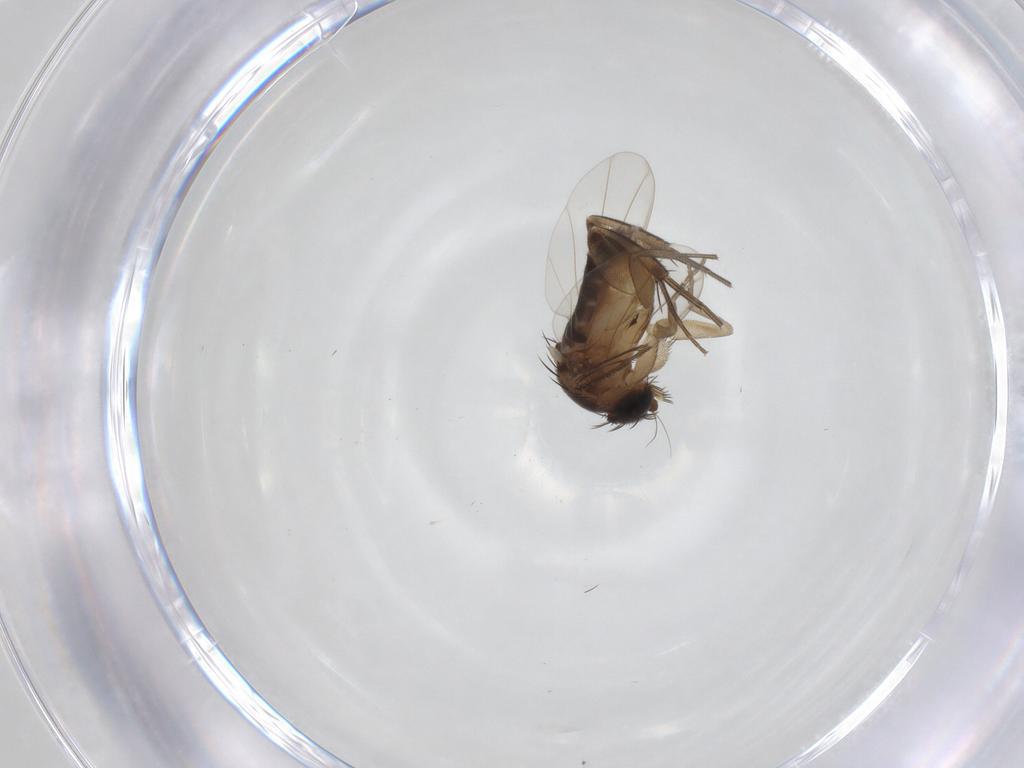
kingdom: Animalia
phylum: Arthropoda
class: Insecta
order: Diptera
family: Phoridae
